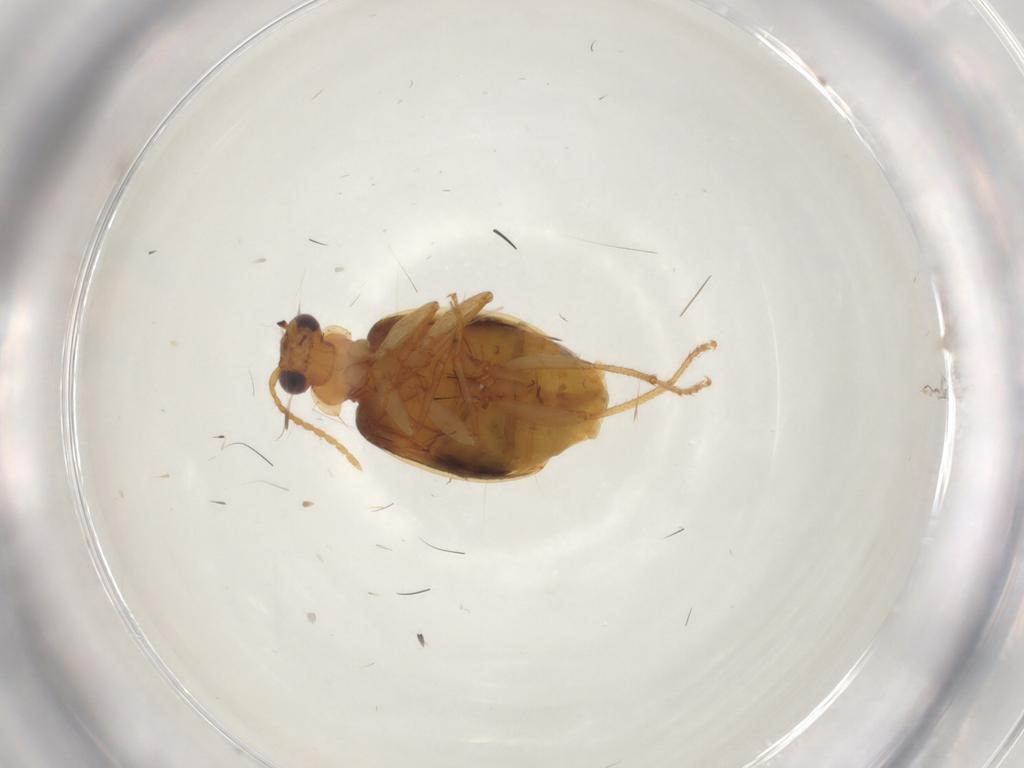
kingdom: Animalia
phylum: Arthropoda
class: Insecta
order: Coleoptera
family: Carabidae
